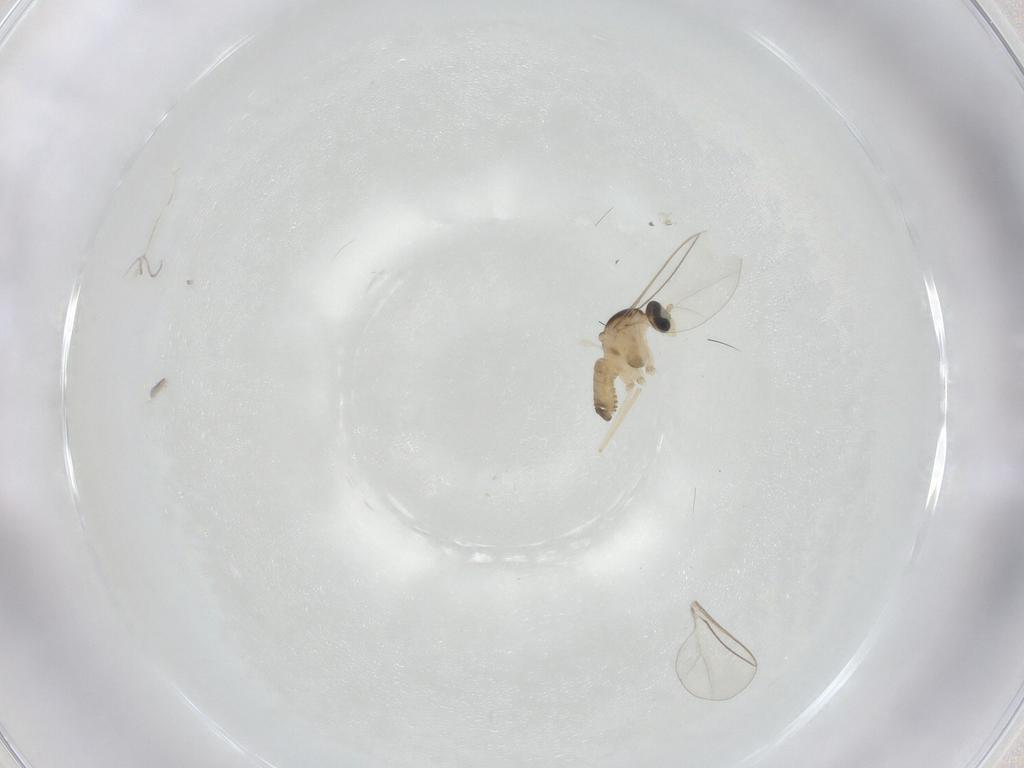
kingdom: Animalia
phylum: Arthropoda
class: Insecta
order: Diptera
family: Cecidomyiidae
